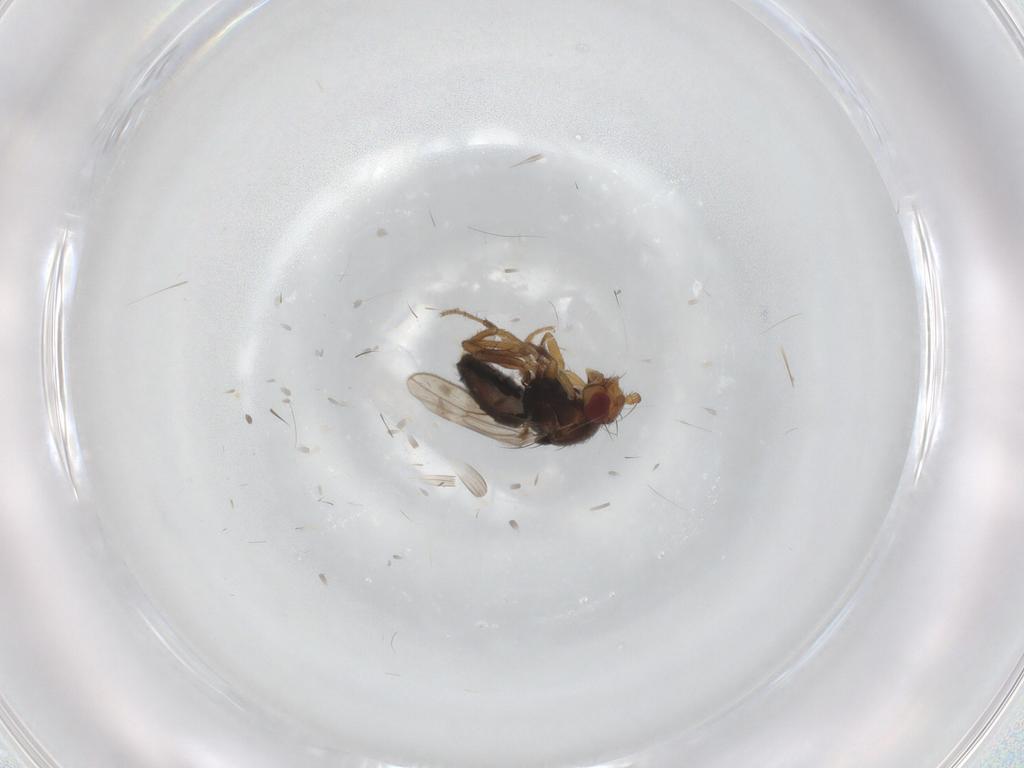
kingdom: Animalia
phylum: Arthropoda
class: Insecta
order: Diptera
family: Sphaeroceridae
